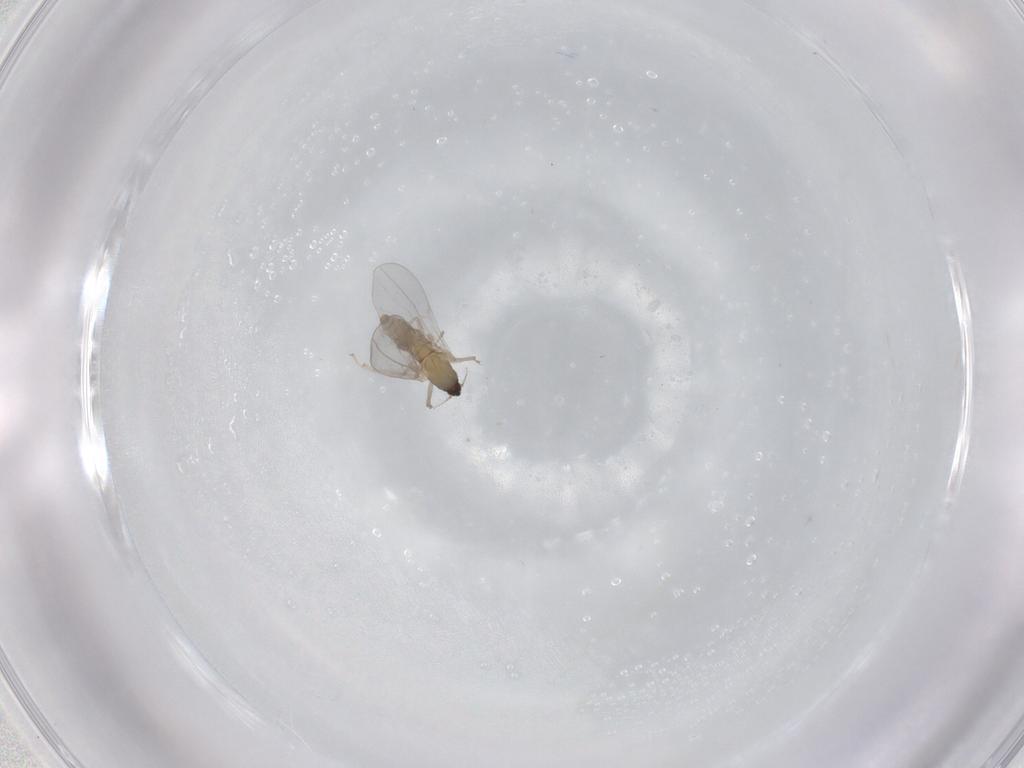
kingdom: Animalia
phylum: Arthropoda
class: Insecta
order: Diptera
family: Cecidomyiidae
